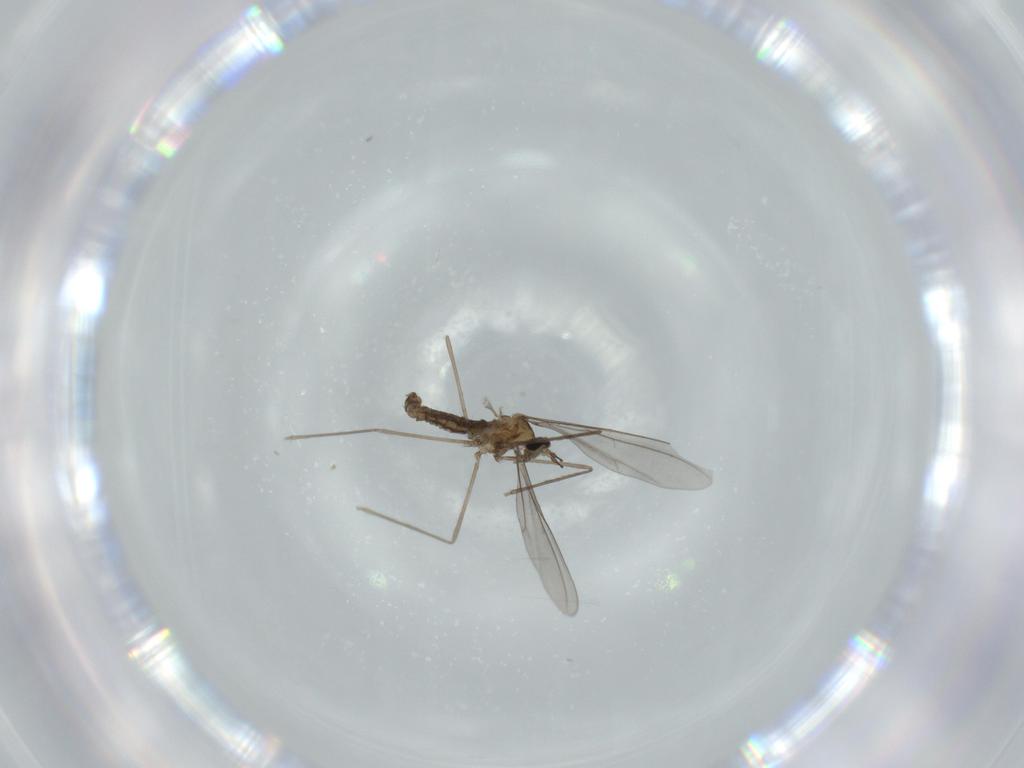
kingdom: Animalia
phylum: Arthropoda
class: Insecta
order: Diptera
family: Cecidomyiidae
